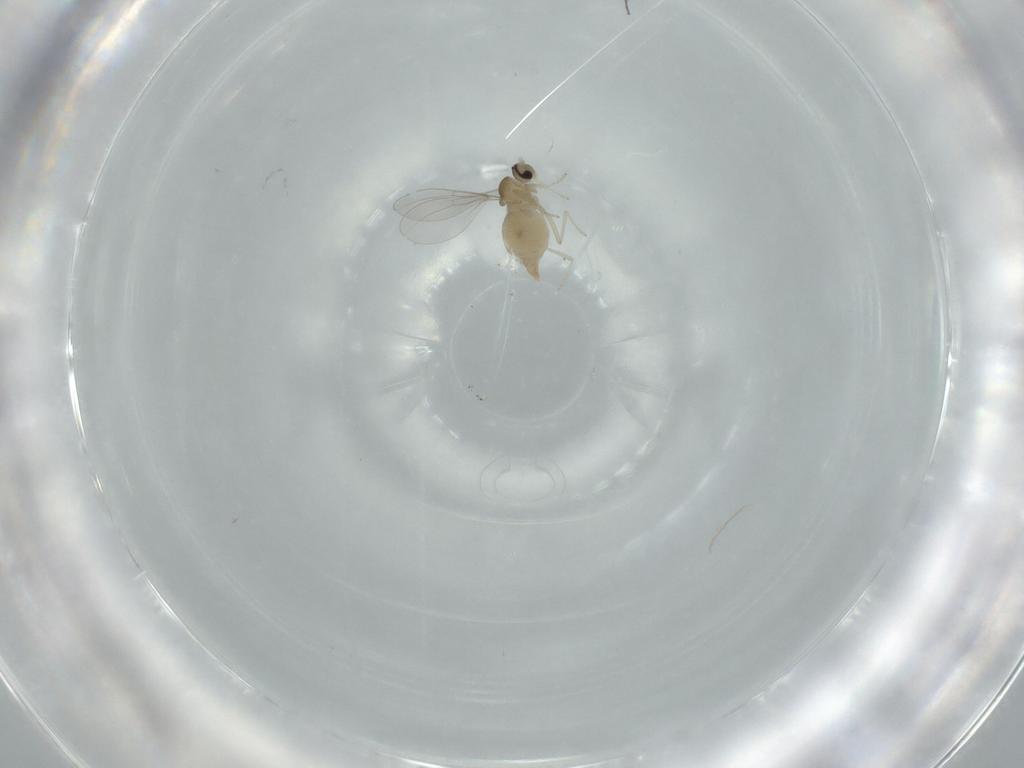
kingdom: Animalia
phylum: Arthropoda
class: Insecta
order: Diptera
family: Cecidomyiidae
